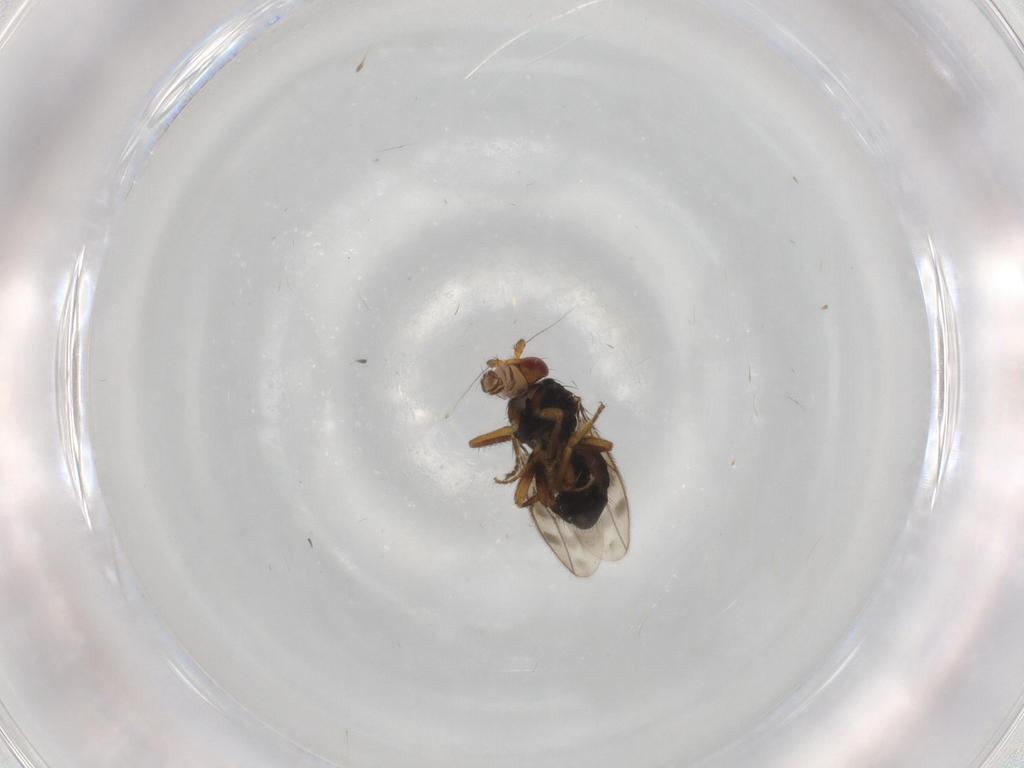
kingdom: Animalia
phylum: Arthropoda
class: Insecta
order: Diptera
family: Sphaeroceridae
